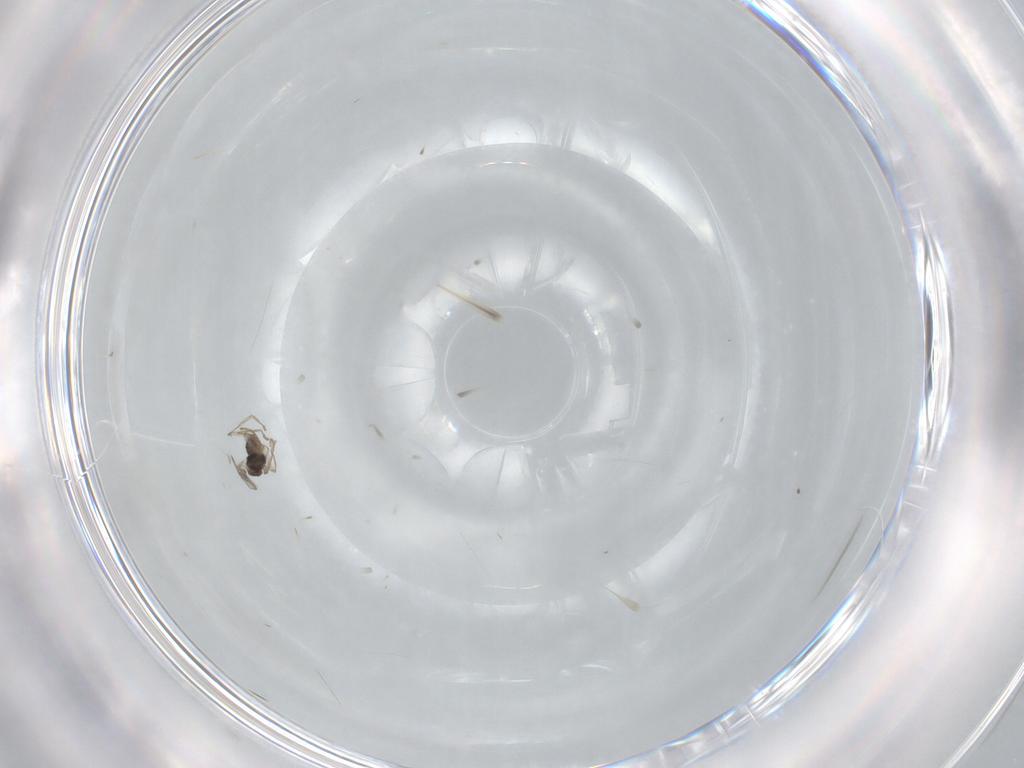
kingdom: Animalia
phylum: Arthropoda
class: Insecta
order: Diptera
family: Cecidomyiidae
